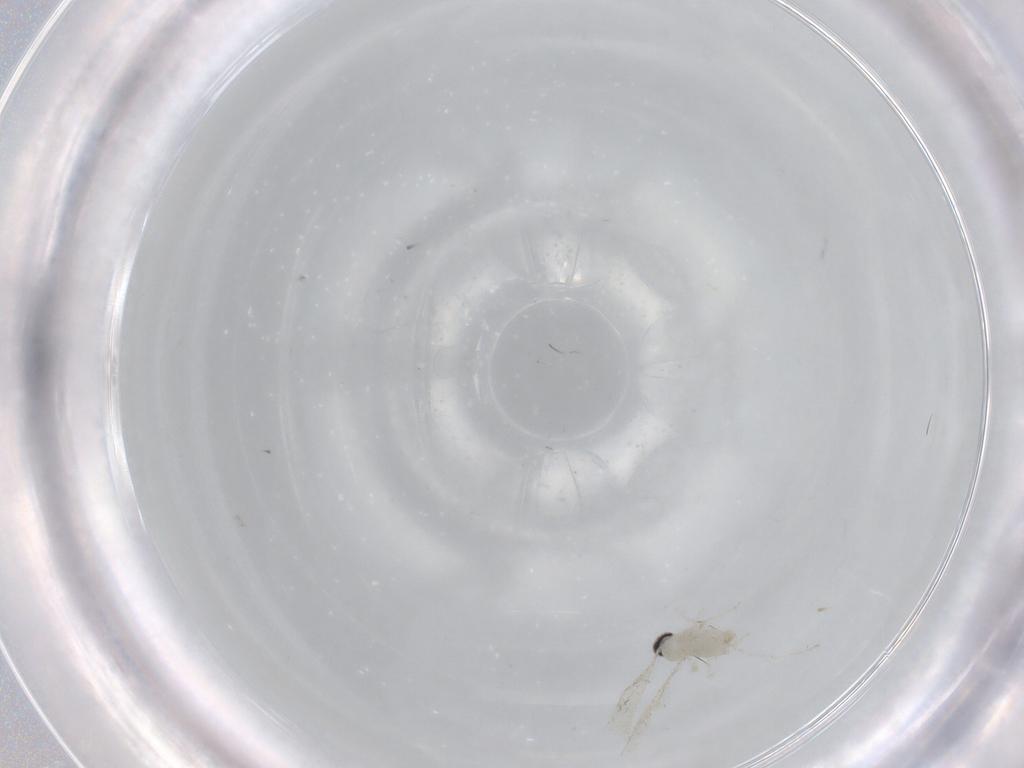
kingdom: Animalia
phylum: Arthropoda
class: Insecta
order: Diptera
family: Cecidomyiidae
